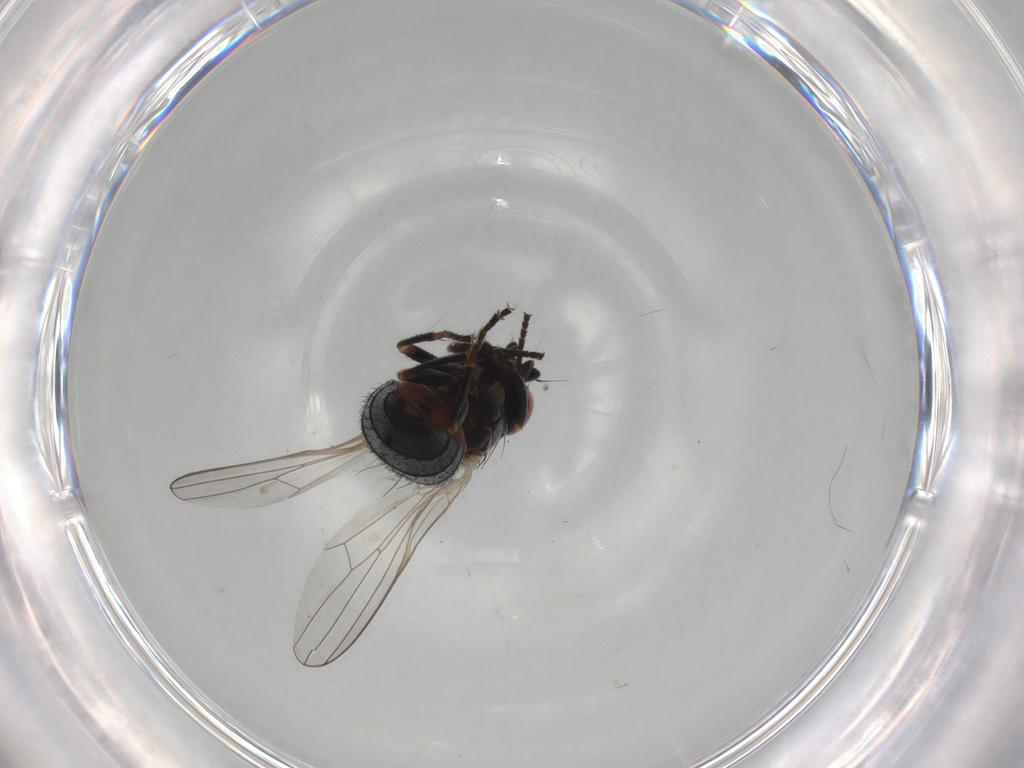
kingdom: Animalia
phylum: Arthropoda
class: Insecta
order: Diptera
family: Chamaemyiidae
